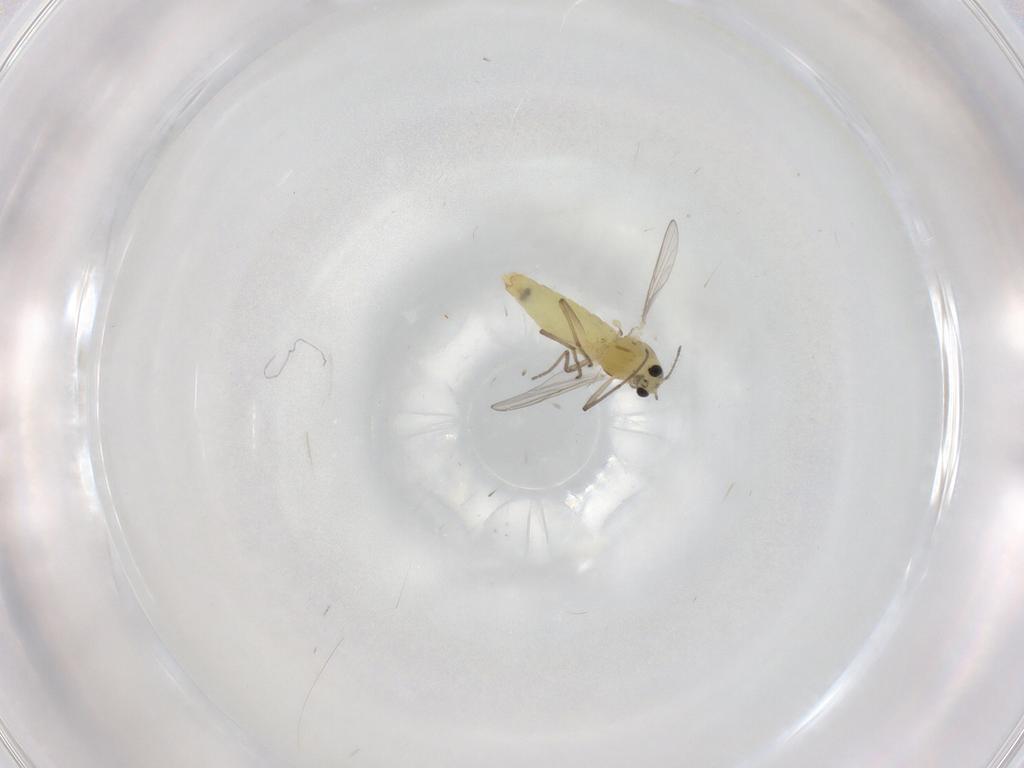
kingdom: Animalia
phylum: Arthropoda
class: Insecta
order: Diptera
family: Chironomidae
